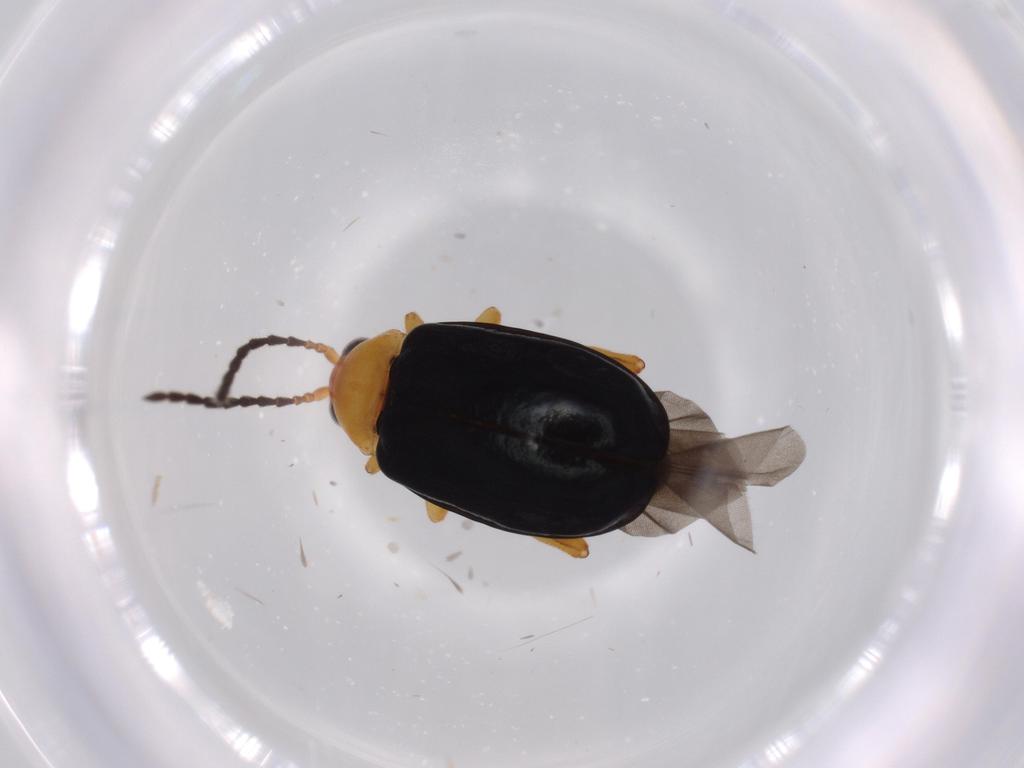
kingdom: Animalia
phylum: Arthropoda
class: Insecta
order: Coleoptera
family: Chrysomelidae
